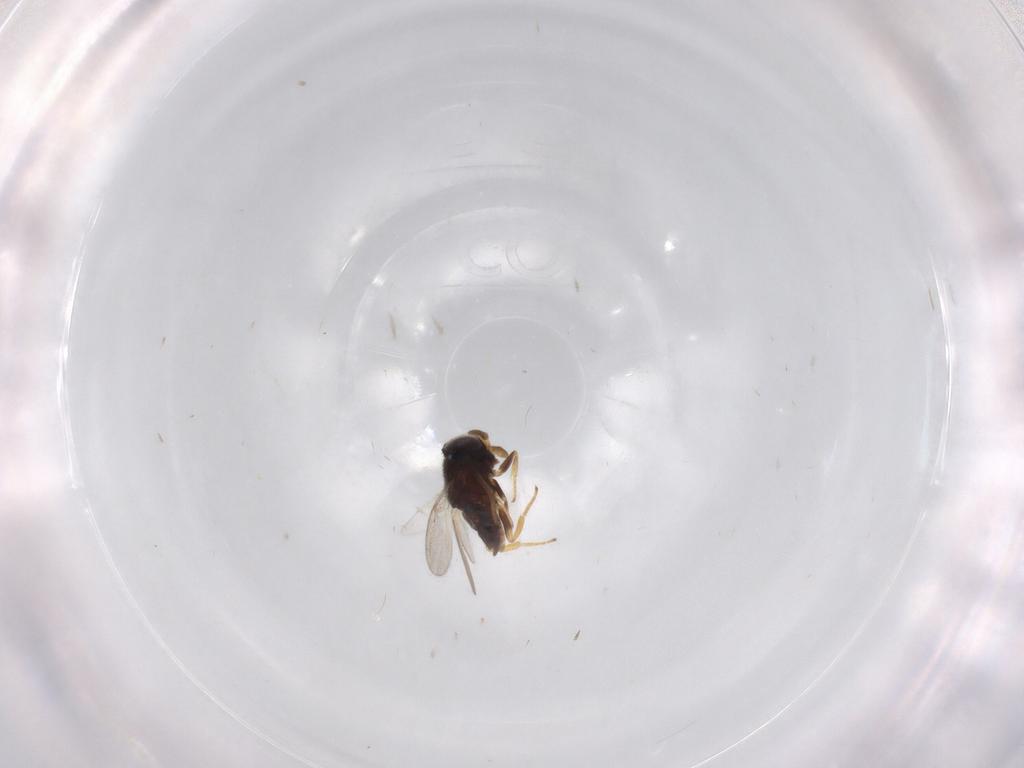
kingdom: Animalia
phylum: Arthropoda
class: Insecta
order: Hymenoptera
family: Encyrtidae
